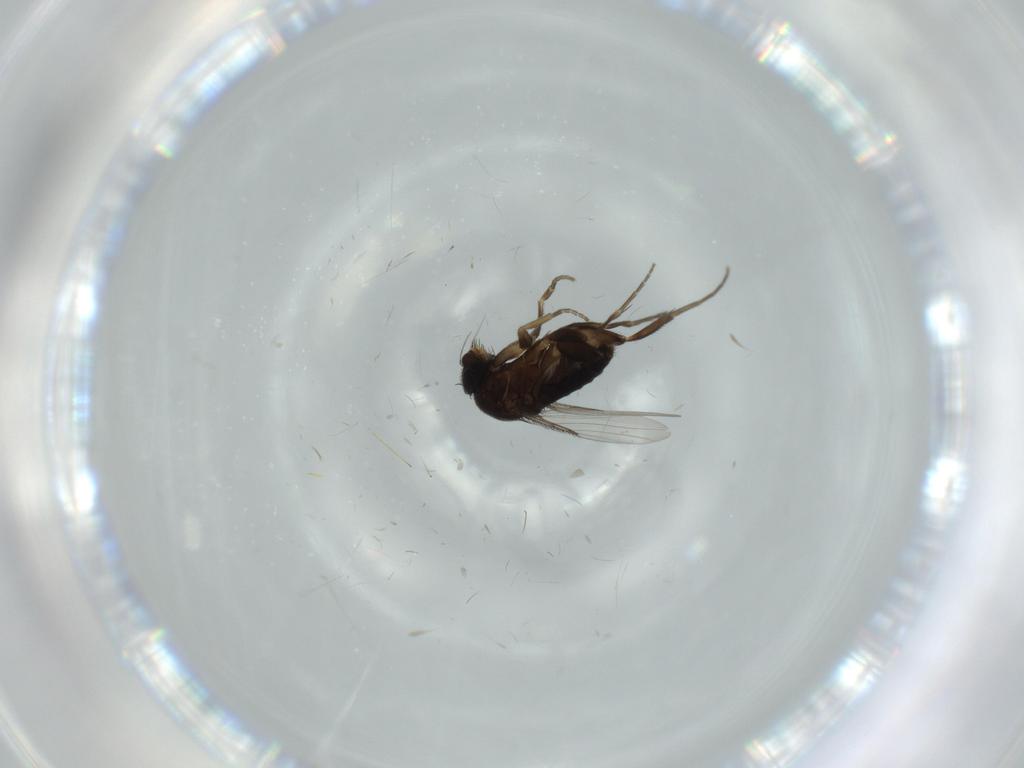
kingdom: Animalia
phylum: Arthropoda
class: Insecta
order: Diptera
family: Phoridae
